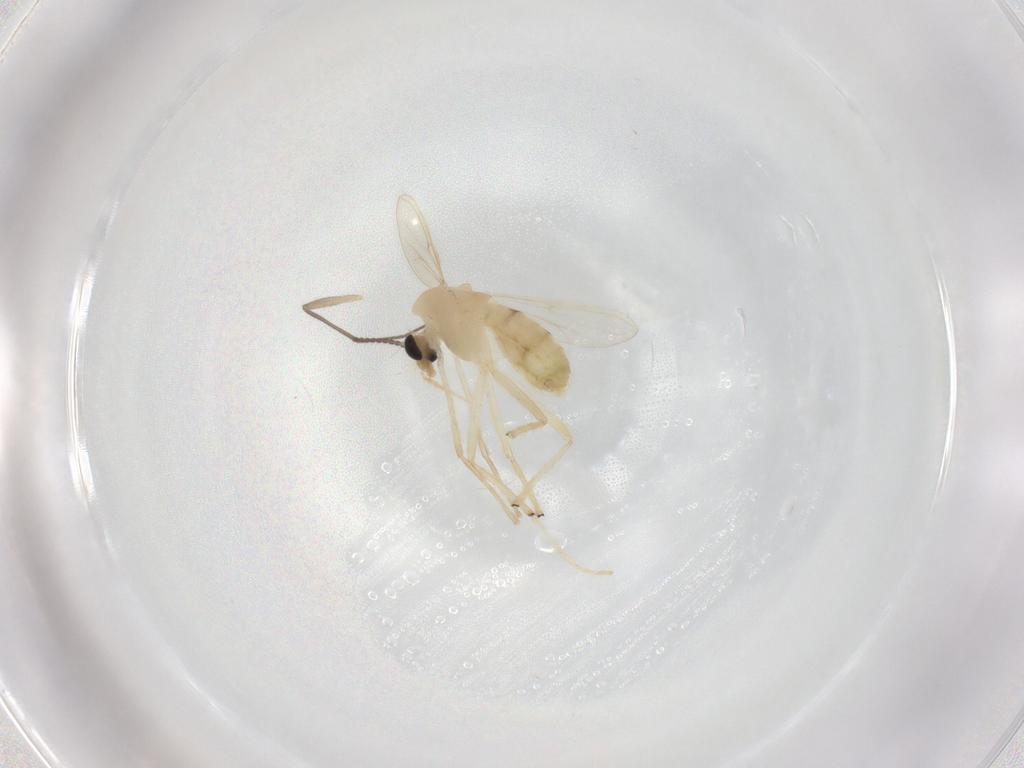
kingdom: Animalia
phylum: Arthropoda
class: Insecta
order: Diptera
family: Chironomidae
